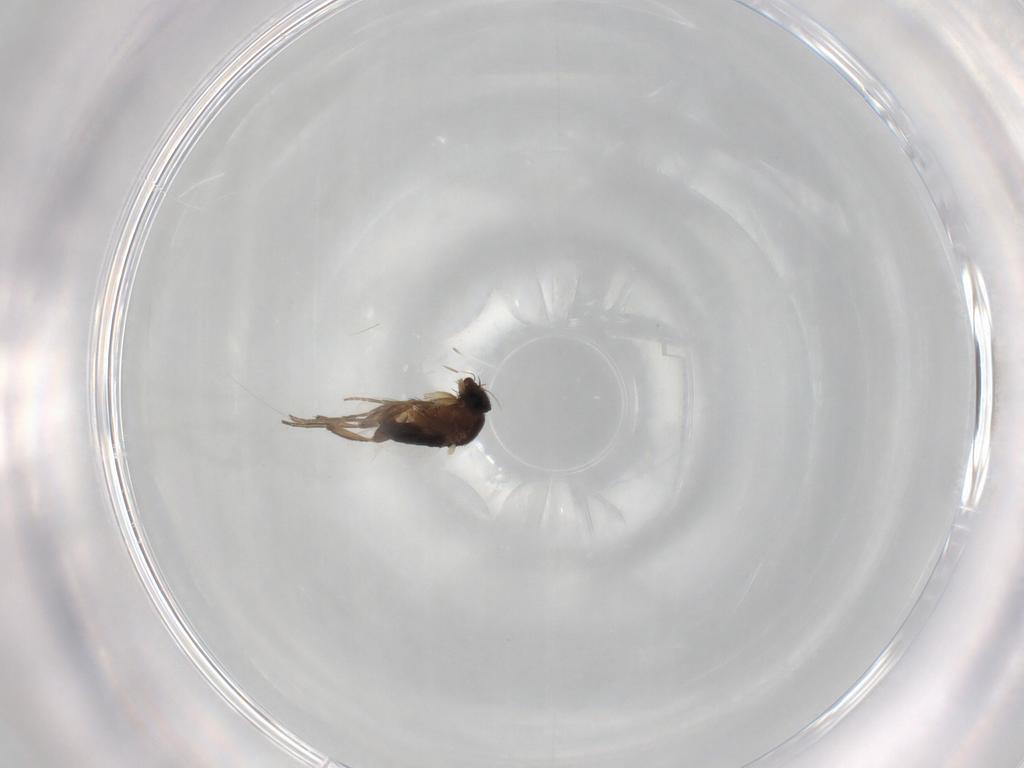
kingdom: Animalia
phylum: Arthropoda
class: Insecta
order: Diptera
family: Phoridae
